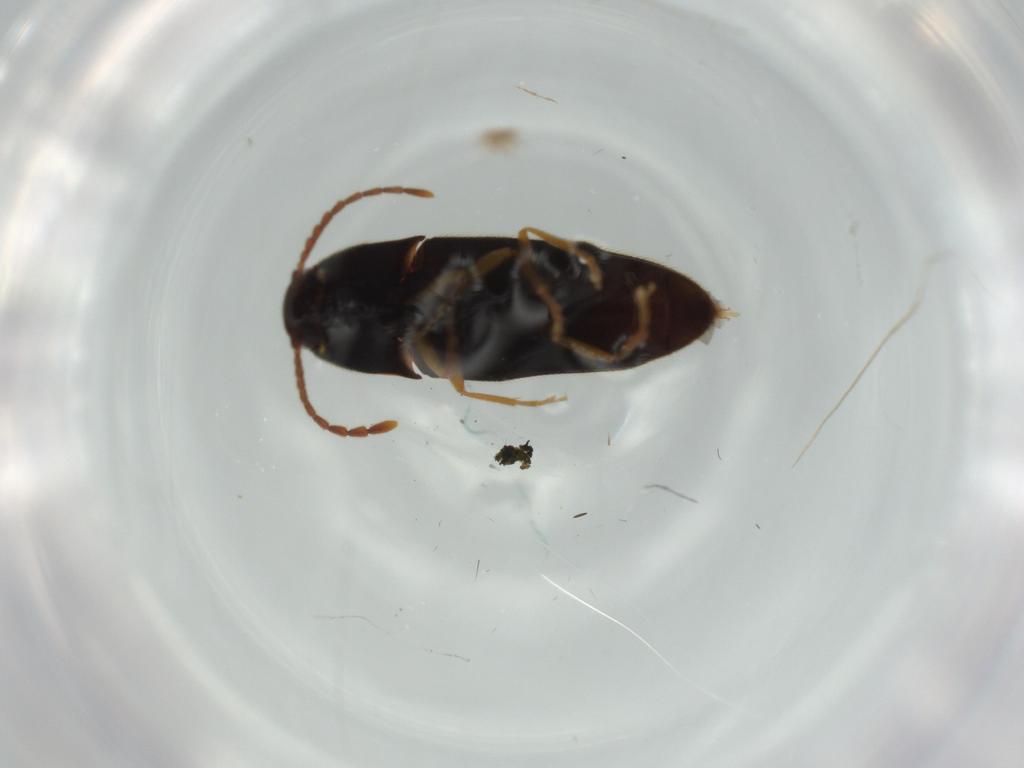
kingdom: Animalia
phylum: Arthropoda
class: Insecta
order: Coleoptera
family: Elateridae
